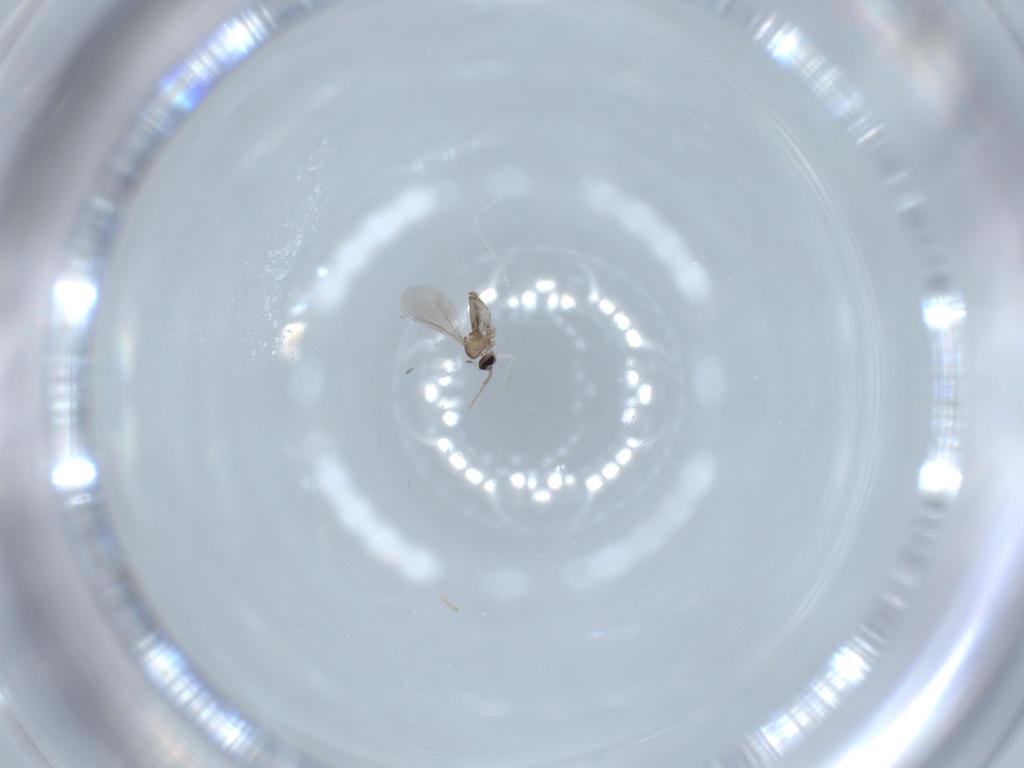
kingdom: Animalia
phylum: Arthropoda
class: Insecta
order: Diptera
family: Cecidomyiidae
